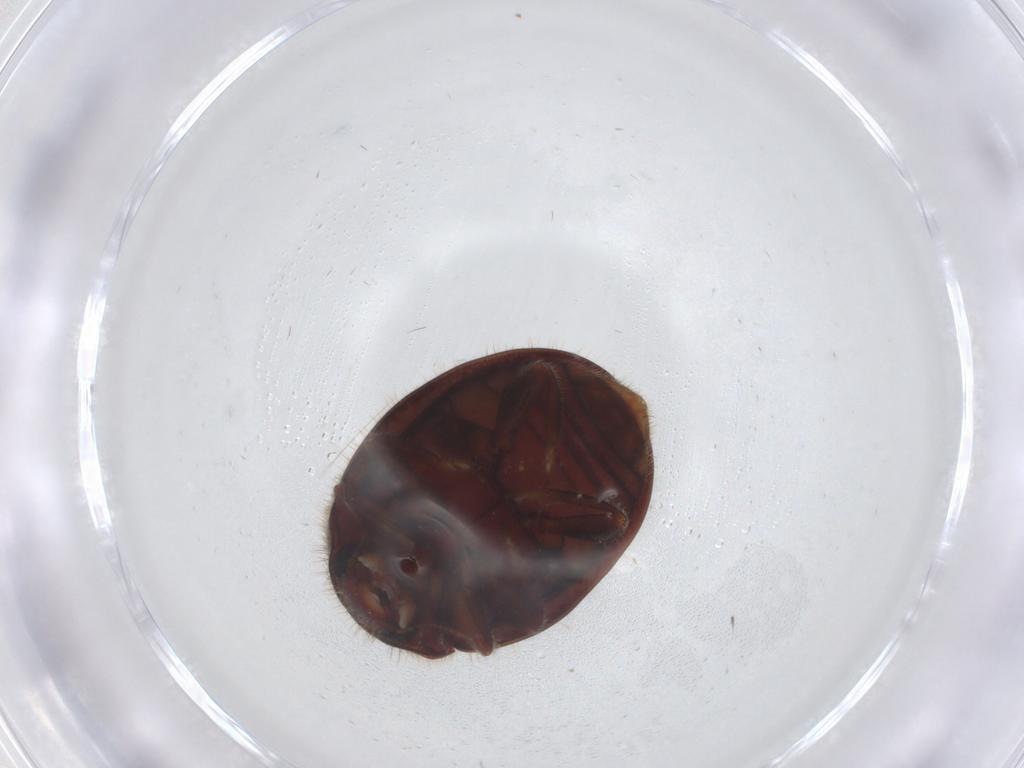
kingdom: Animalia
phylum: Arthropoda
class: Insecta
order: Coleoptera
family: Coccinellidae
